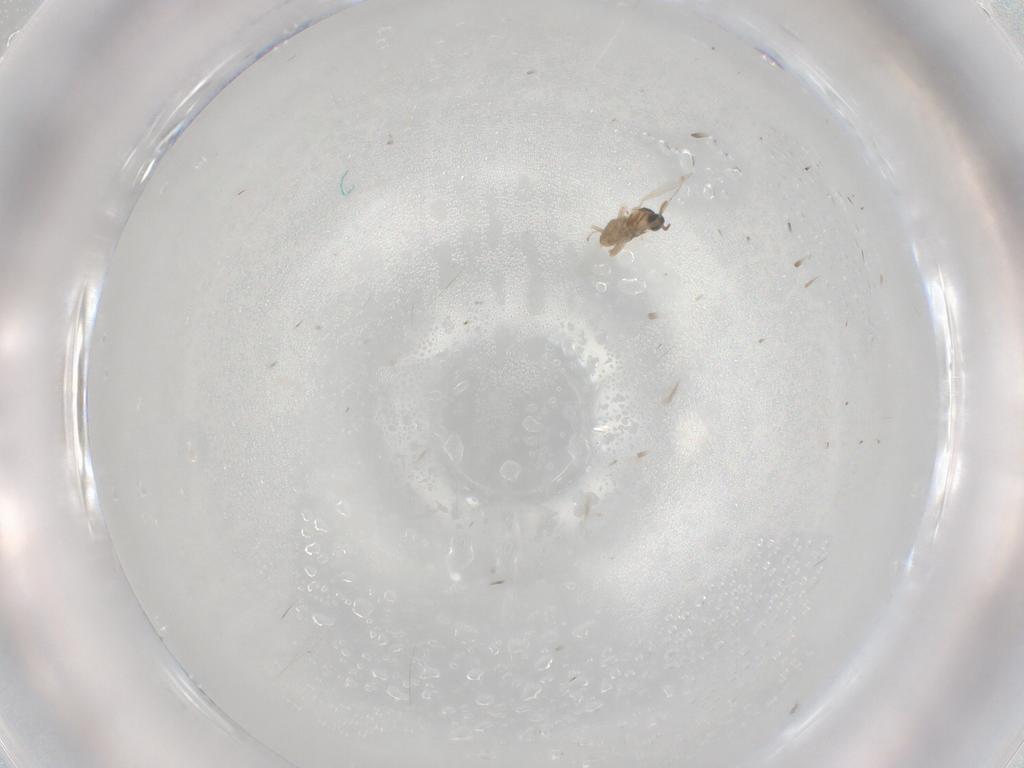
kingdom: Animalia
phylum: Arthropoda
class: Insecta
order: Diptera
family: Cecidomyiidae
